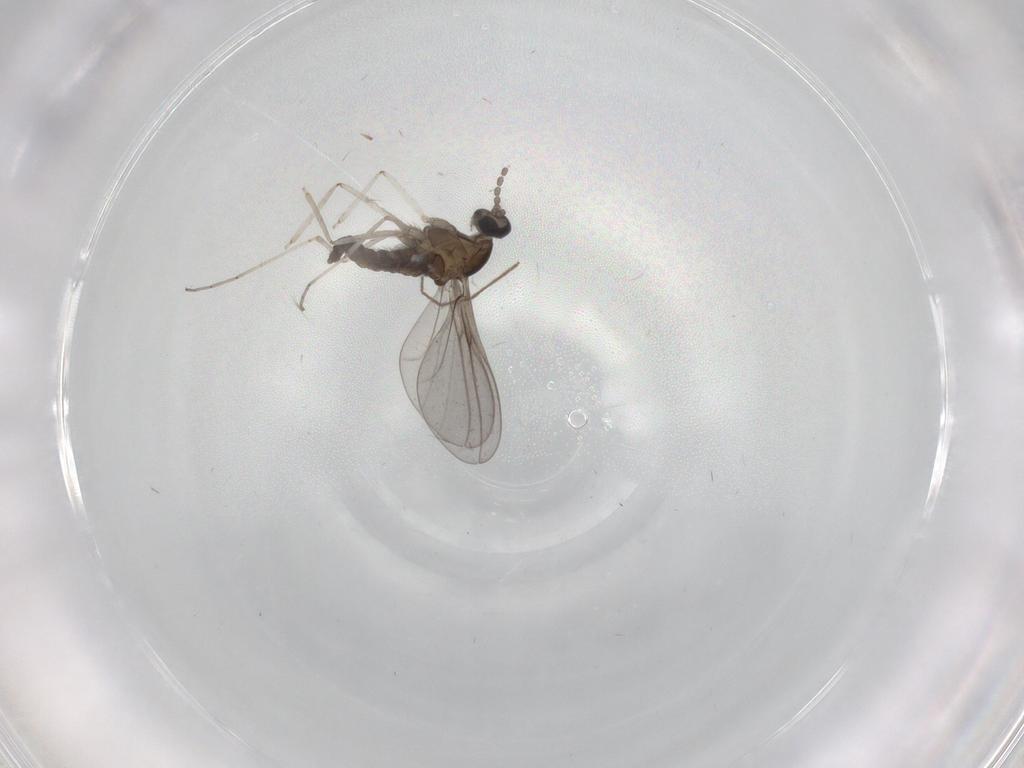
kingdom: Animalia
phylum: Arthropoda
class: Insecta
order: Diptera
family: Cecidomyiidae
